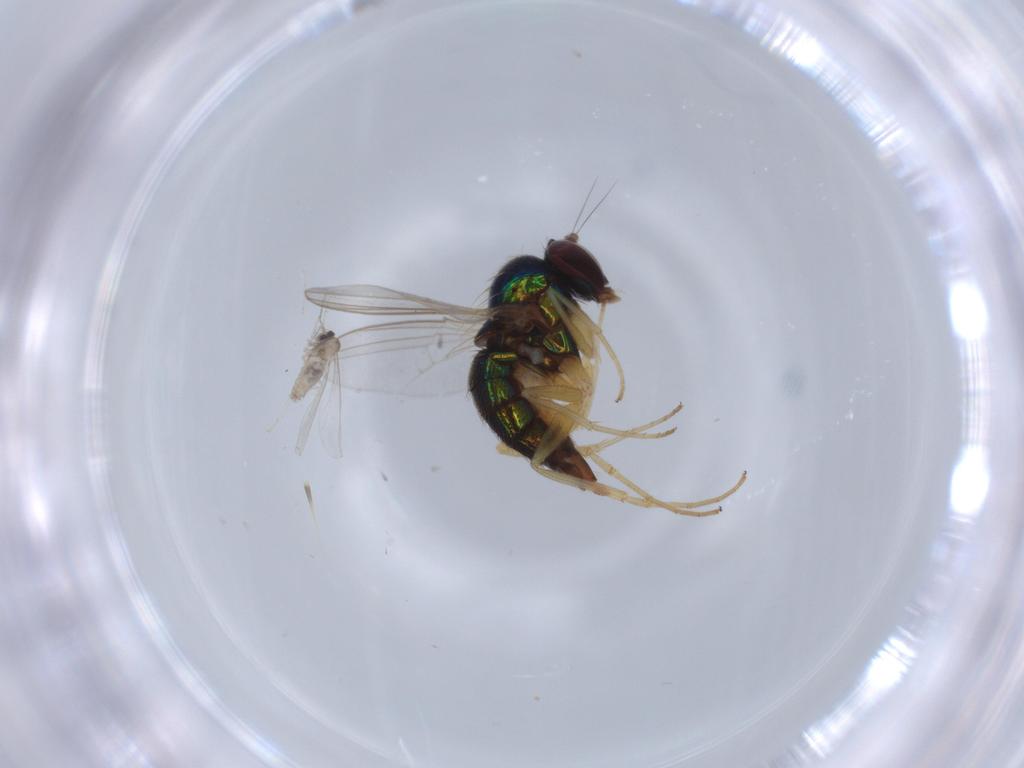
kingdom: Animalia
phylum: Arthropoda
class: Insecta
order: Diptera
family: Dolichopodidae
